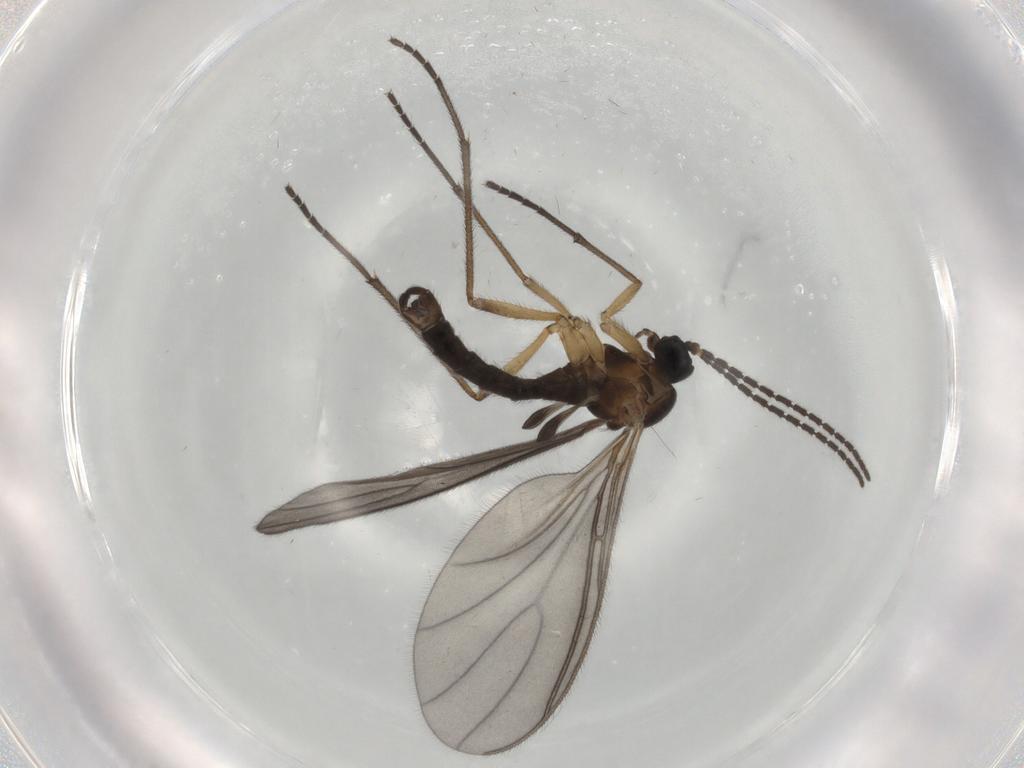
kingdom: Animalia
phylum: Arthropoda
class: Insecta
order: Diptera
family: Sciaridae
